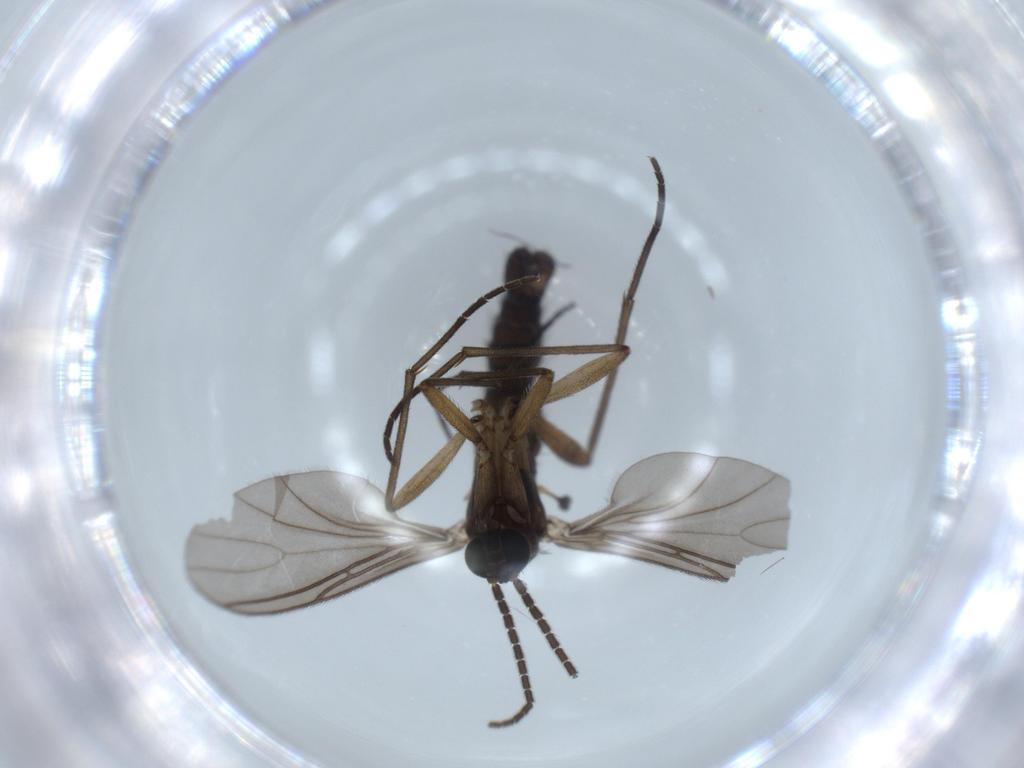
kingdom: Animalia
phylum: Arthropoda
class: Insecta
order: Diptera
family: Sciaridae
